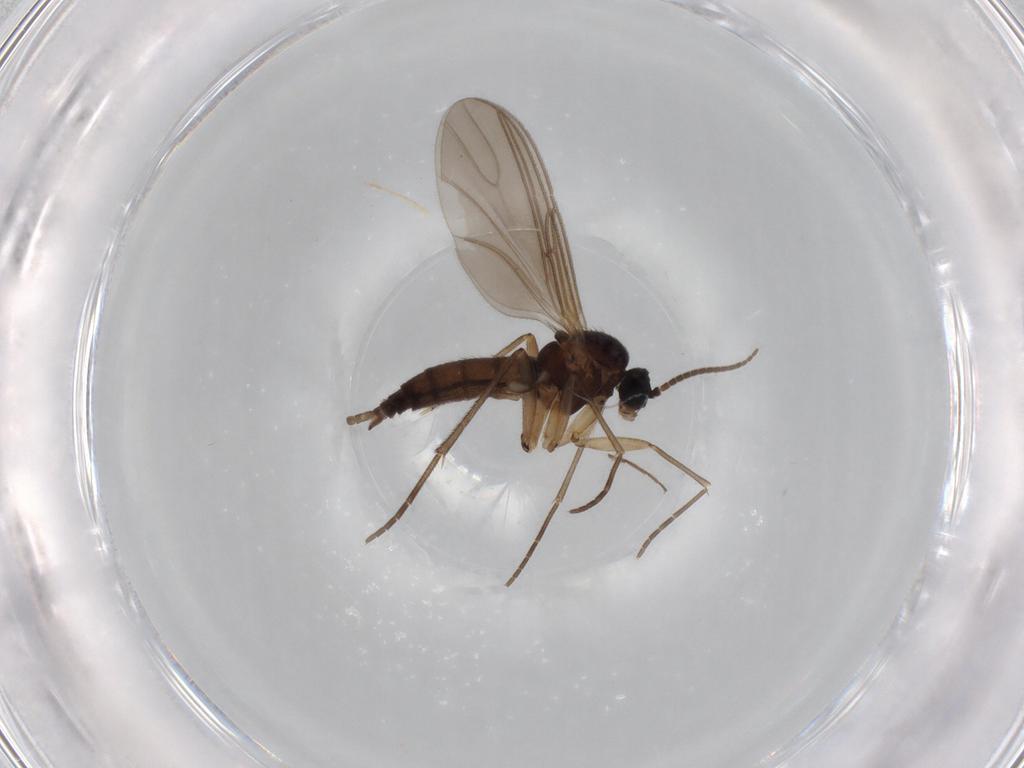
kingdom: Animalia
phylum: Arthropoda
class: Insecta
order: Diptera
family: Sciaridae
